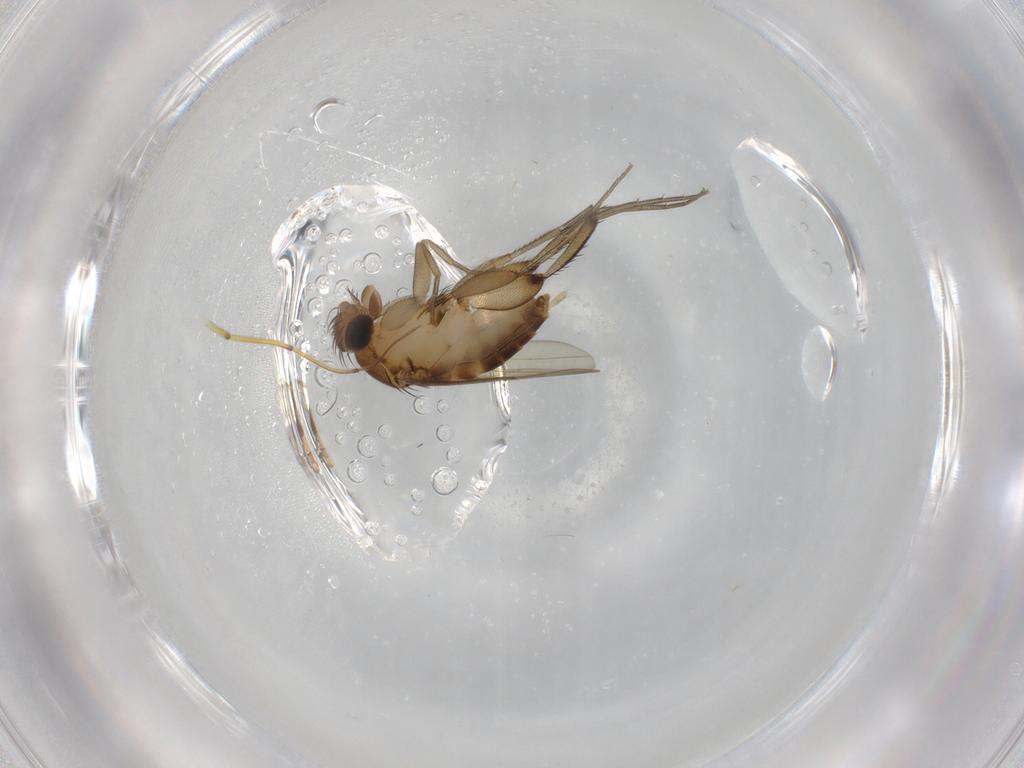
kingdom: Animalia
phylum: Arthropoda
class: Insecta
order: Diptera
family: Phoridae
